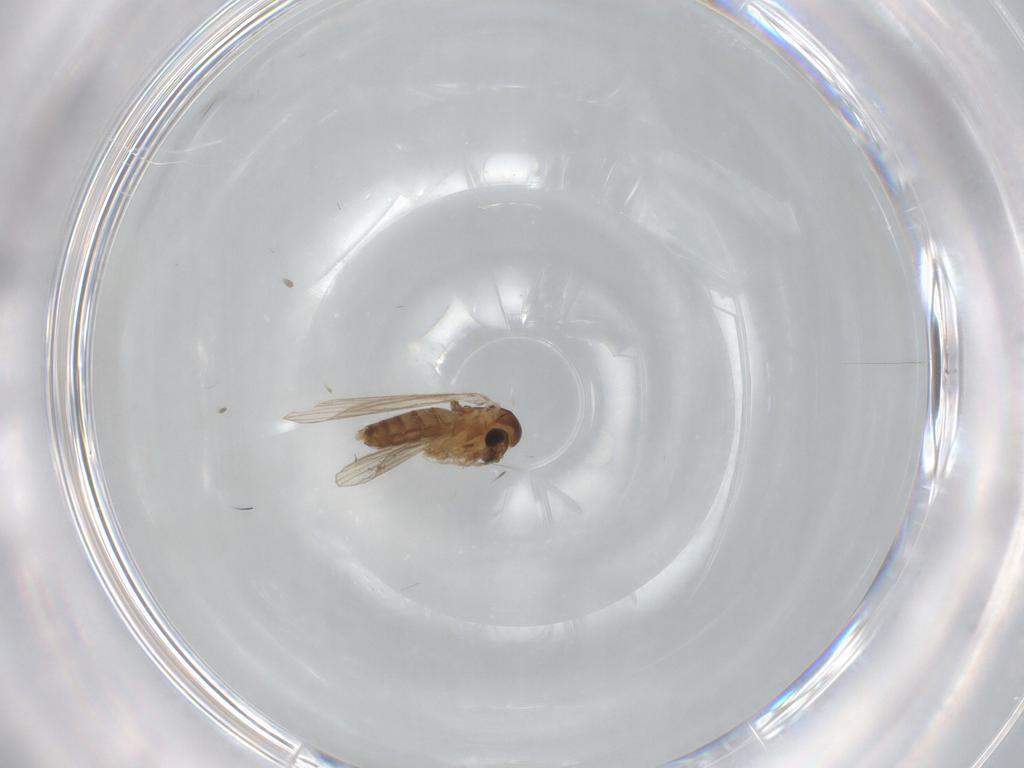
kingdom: Animalia
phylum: Arthropoda
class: Insecta
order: Diptera
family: Psychodidae
